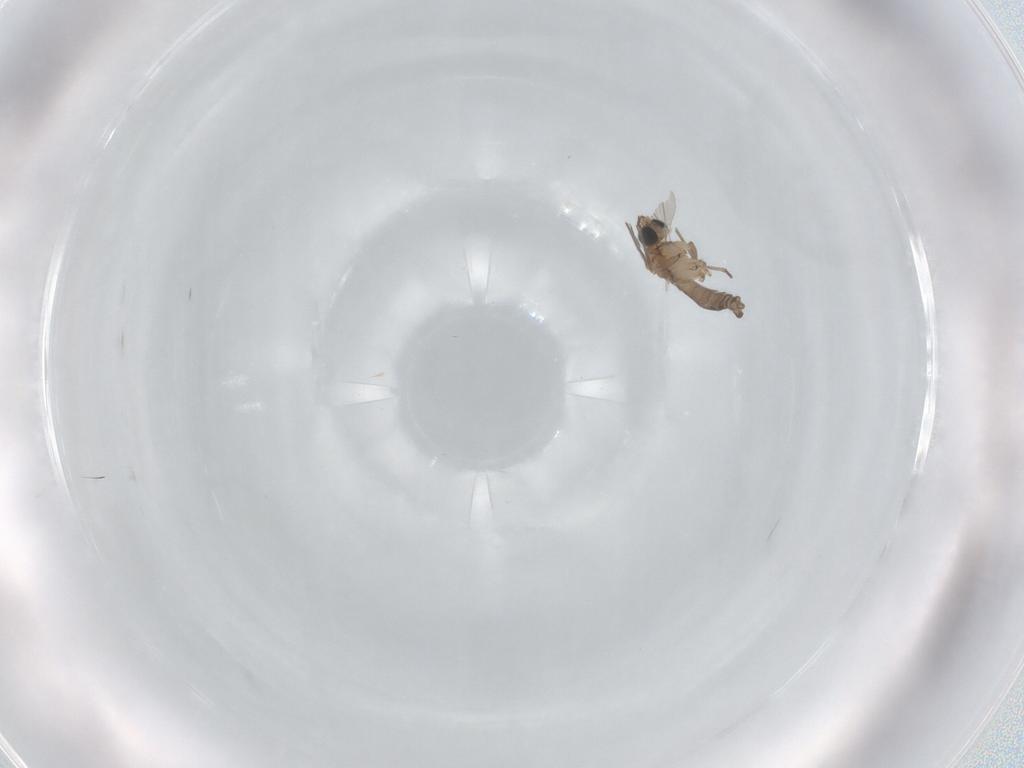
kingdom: Animalia
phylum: Arthropoda
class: Insecta
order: Diptera
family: Sciaridae
